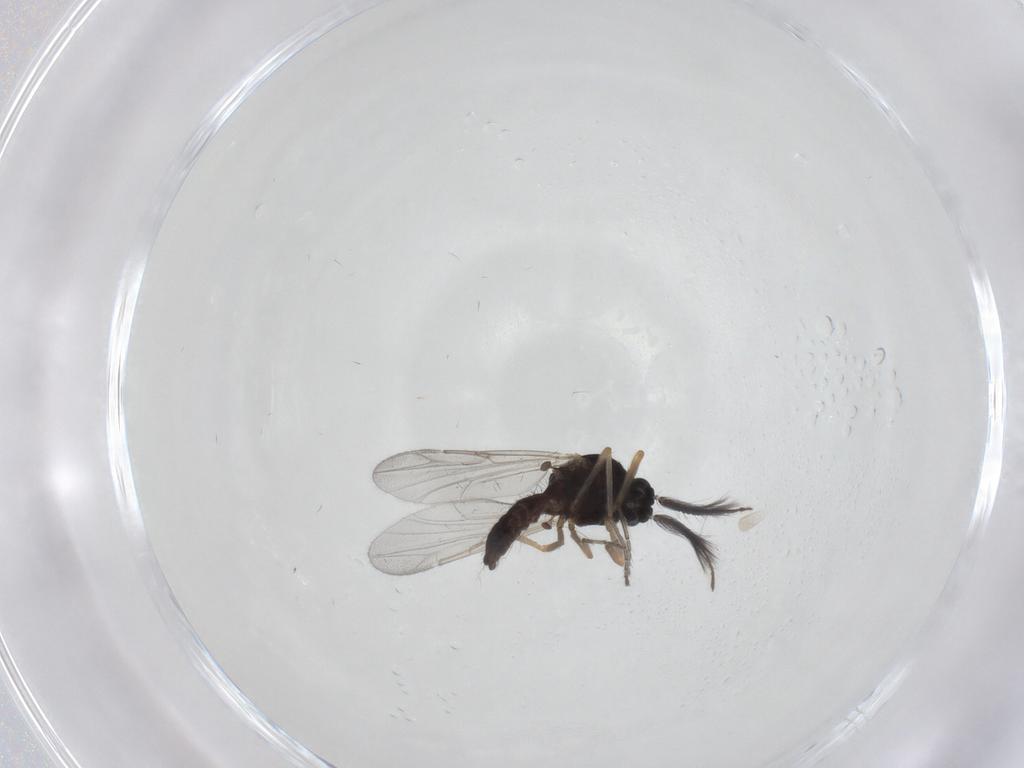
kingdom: Animalia
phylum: Arthropoda
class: Insecta
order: Diptera
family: Ceratopogonidae
